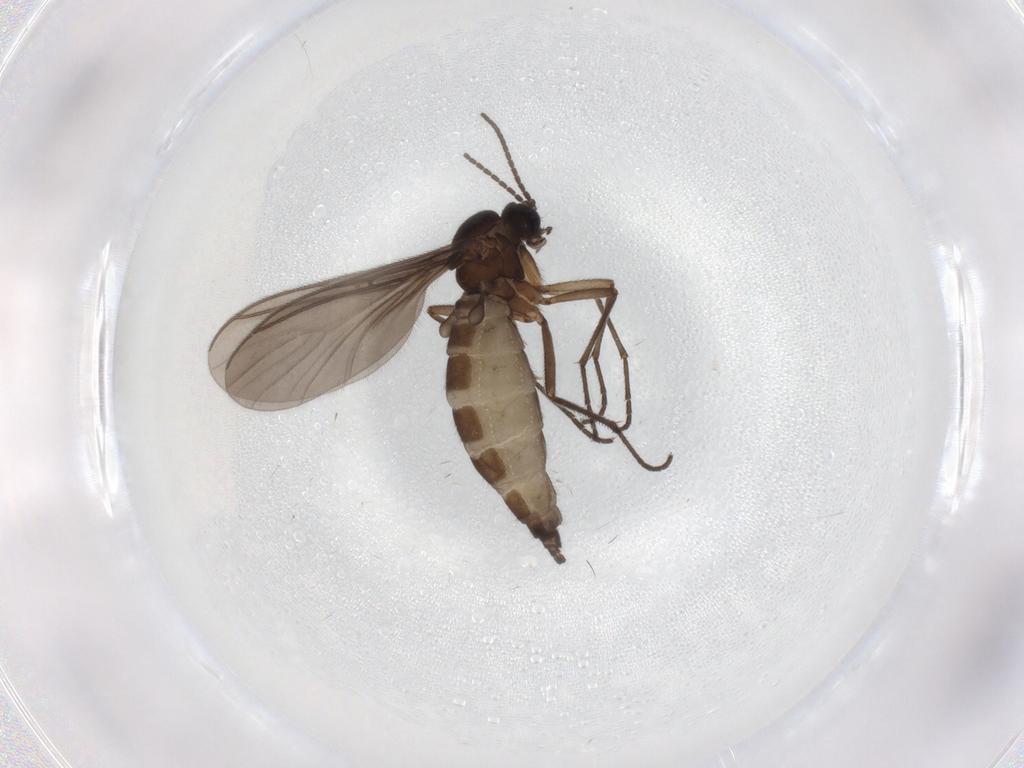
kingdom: Animalia
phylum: Arthropoda
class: Insecta
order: Diptera
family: Sciaridae
